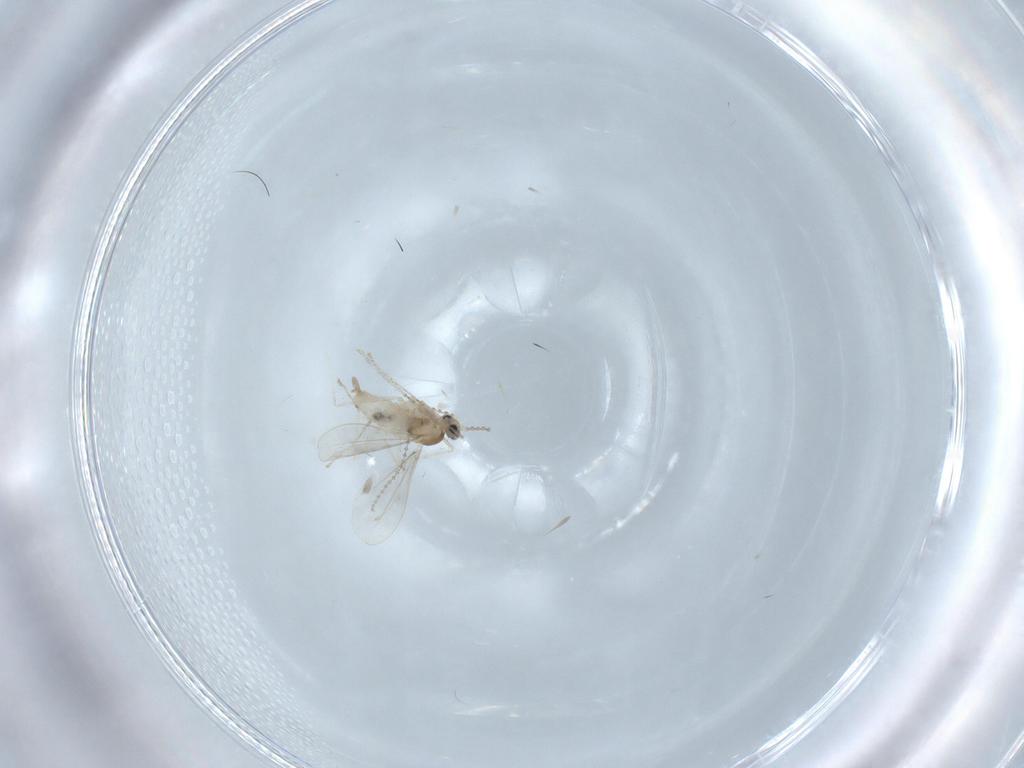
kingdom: Animalia
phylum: Arthropoda
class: Insecta
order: Diptera
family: Cecidomyiidae
